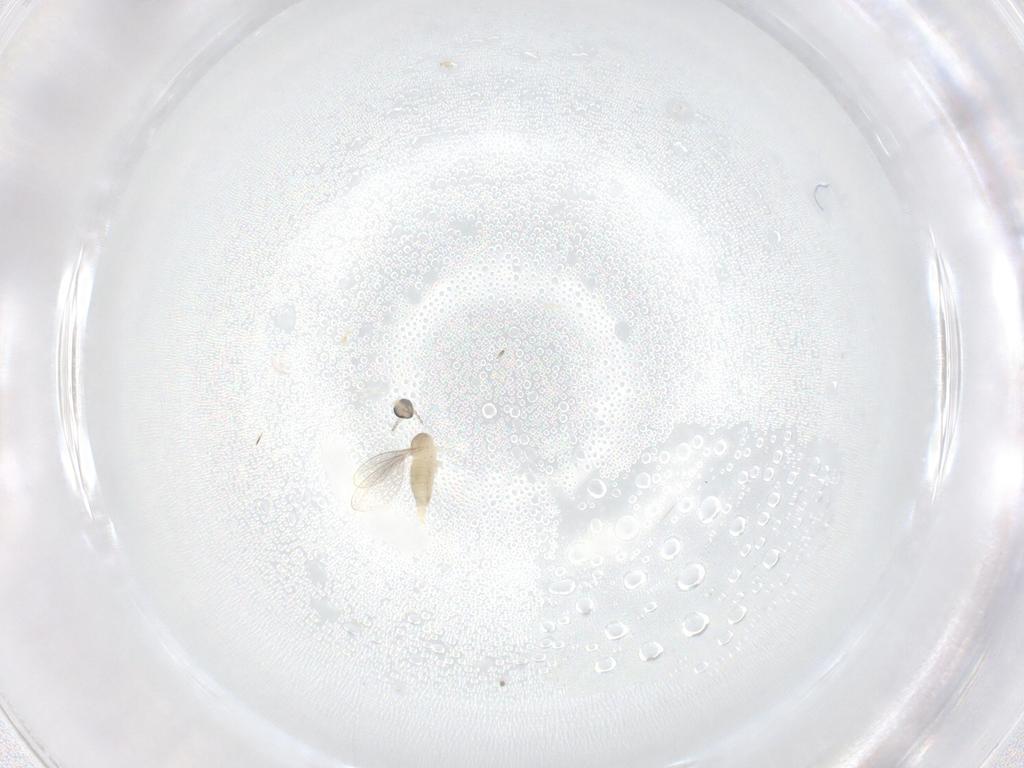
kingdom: Animalia
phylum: Arthropoda
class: Insecta
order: Diptera
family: Cecidomyiidae
